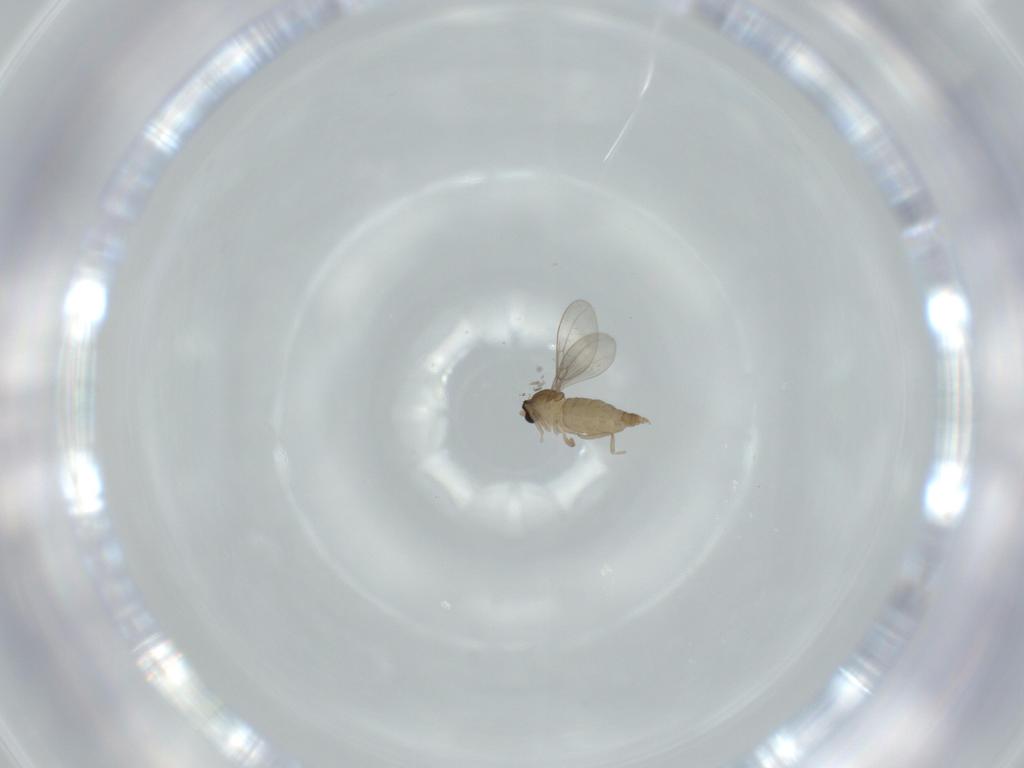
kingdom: Animalia
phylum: Arthropoda
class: Insecta
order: Diptera
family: Cecidomyiidae
